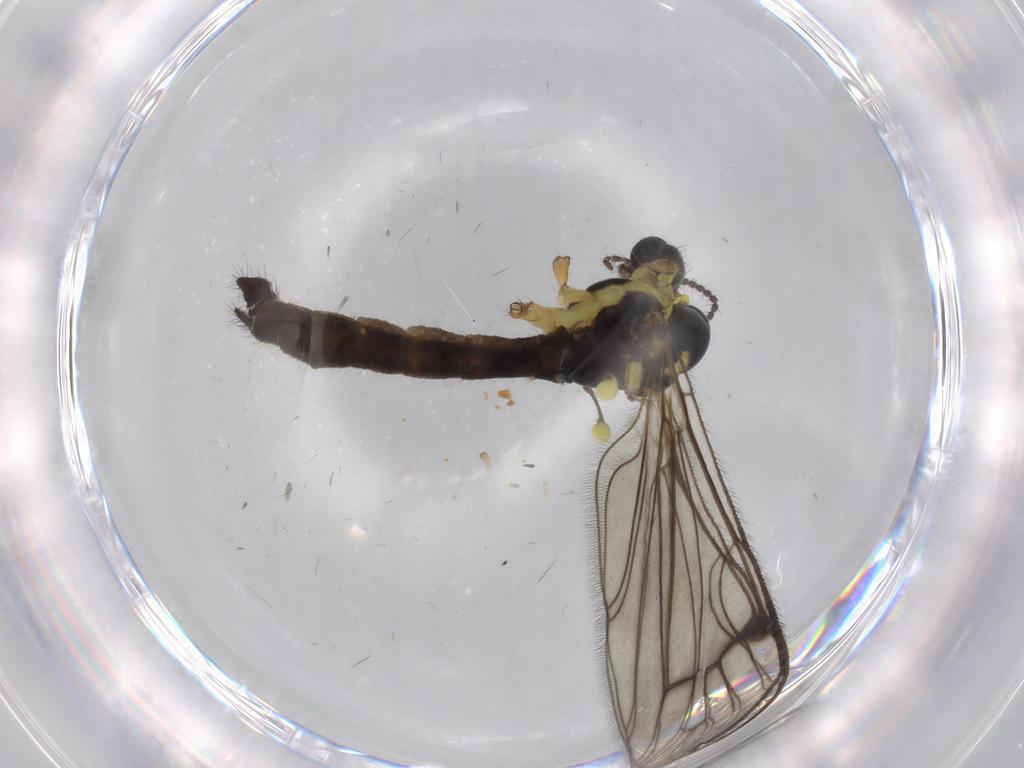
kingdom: Animalia
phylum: Arthropoda
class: Insecta
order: Diptera
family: Limoniidae
